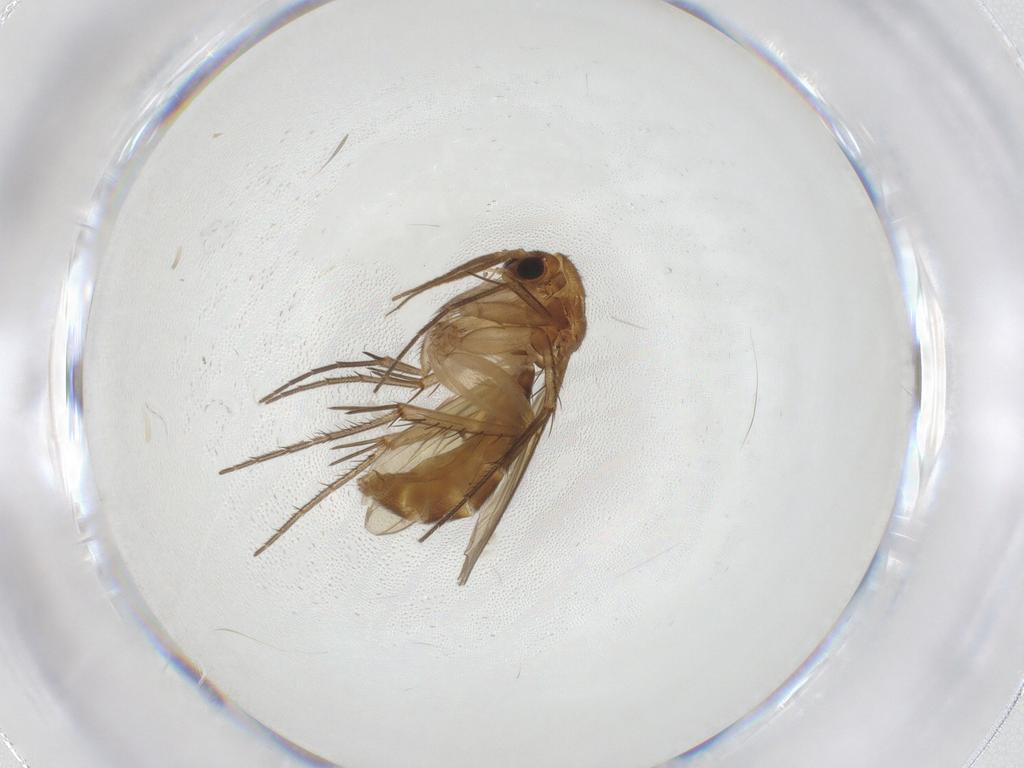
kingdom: Animalia
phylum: Arthropoda
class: Insecta
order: Diptera
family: Mycetophilidae
